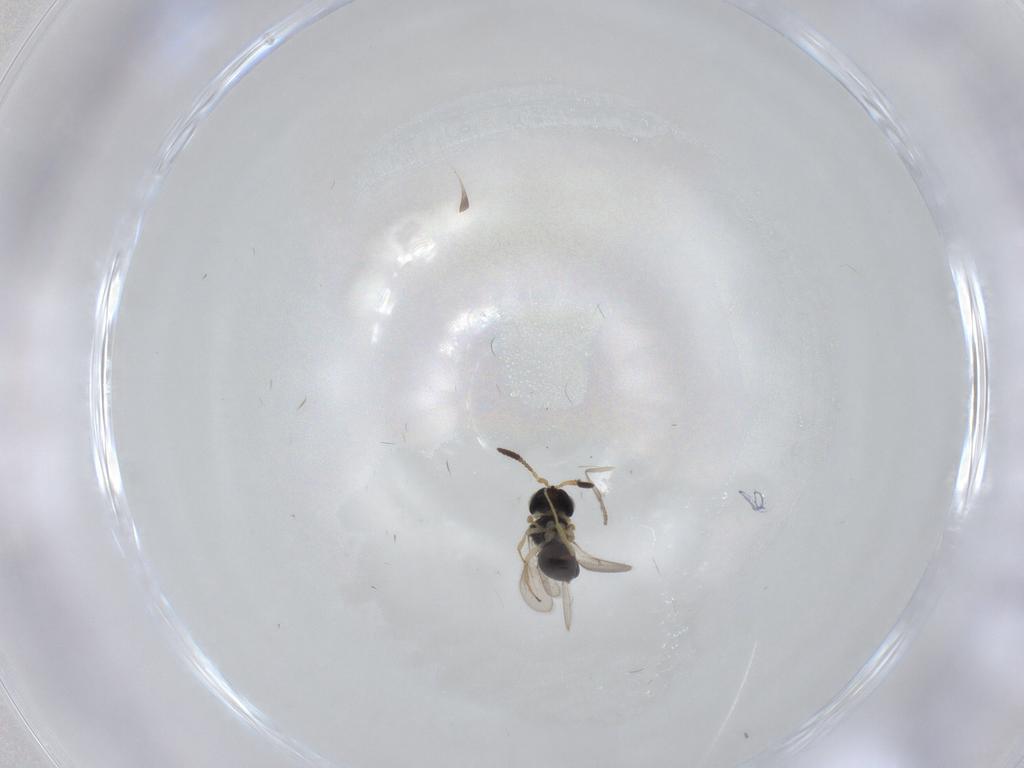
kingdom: Animalia
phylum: Arthropoda
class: Insecta
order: Hymenoptera
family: Scelionidae
